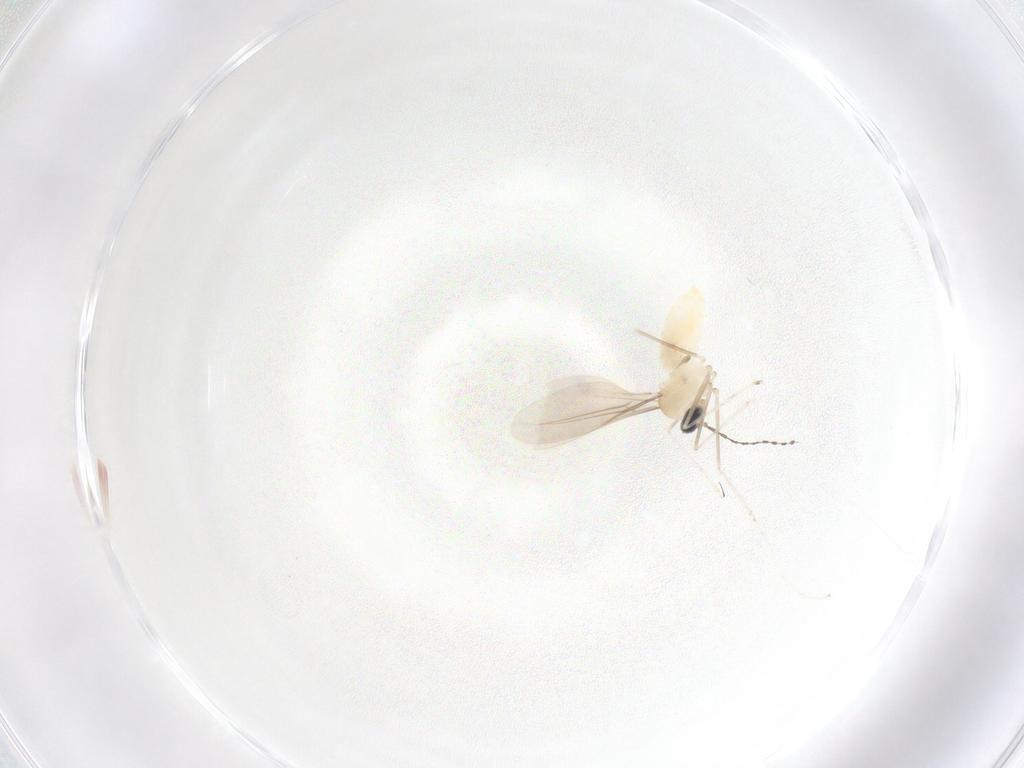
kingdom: Animalia
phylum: Arthropoda
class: Insecta
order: Diptera
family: Cecidomyiidae
